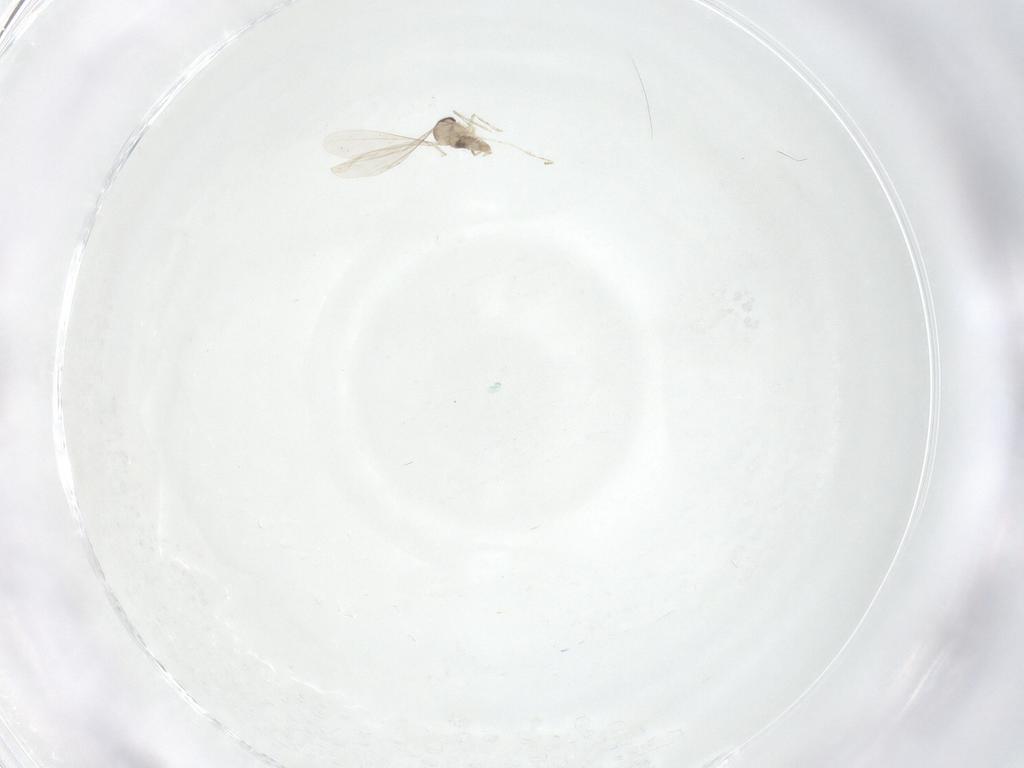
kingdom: Animalia
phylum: Arthropoda
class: Insecta
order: Diptera
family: Cecidomyiidae
